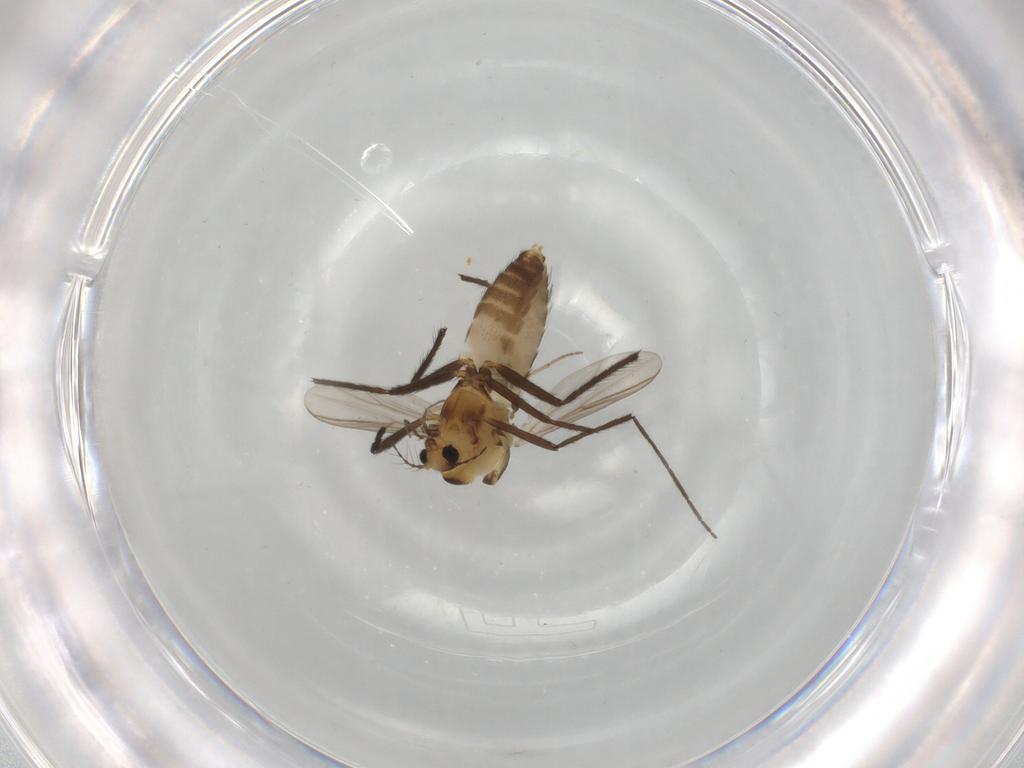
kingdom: Animalia
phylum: Arthropoda
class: Insecta
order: Diptera
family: Chironomidae
